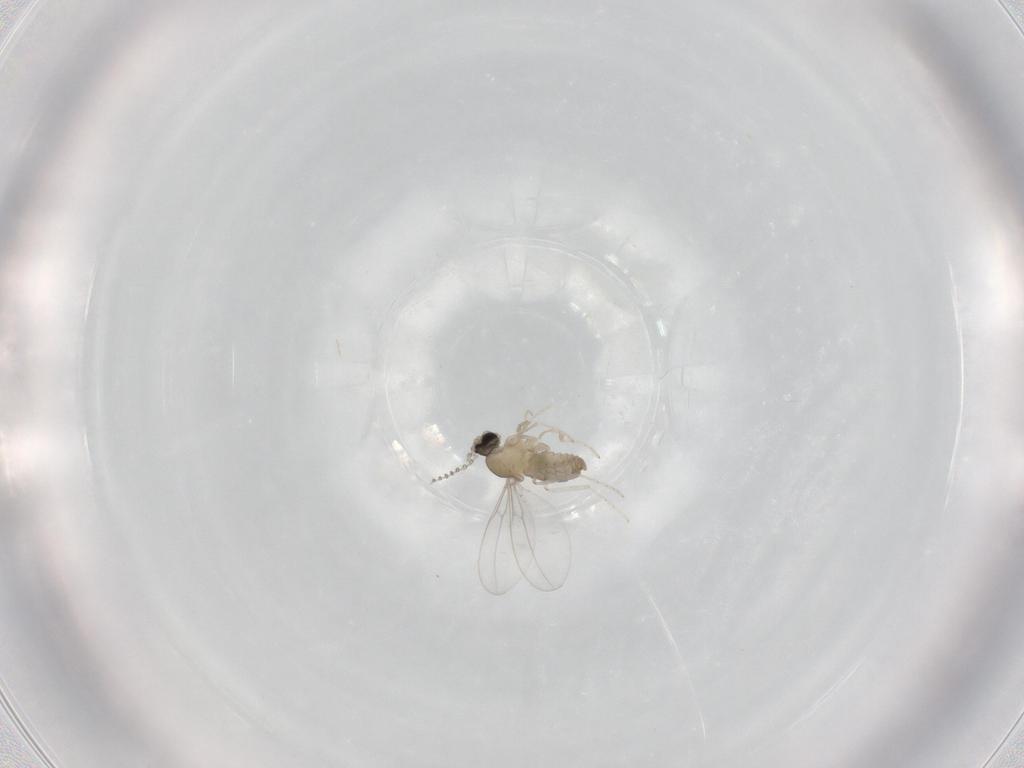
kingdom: Animalia
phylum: Arthropoda
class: Insecta
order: Diptera
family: Cecidomyiidae
